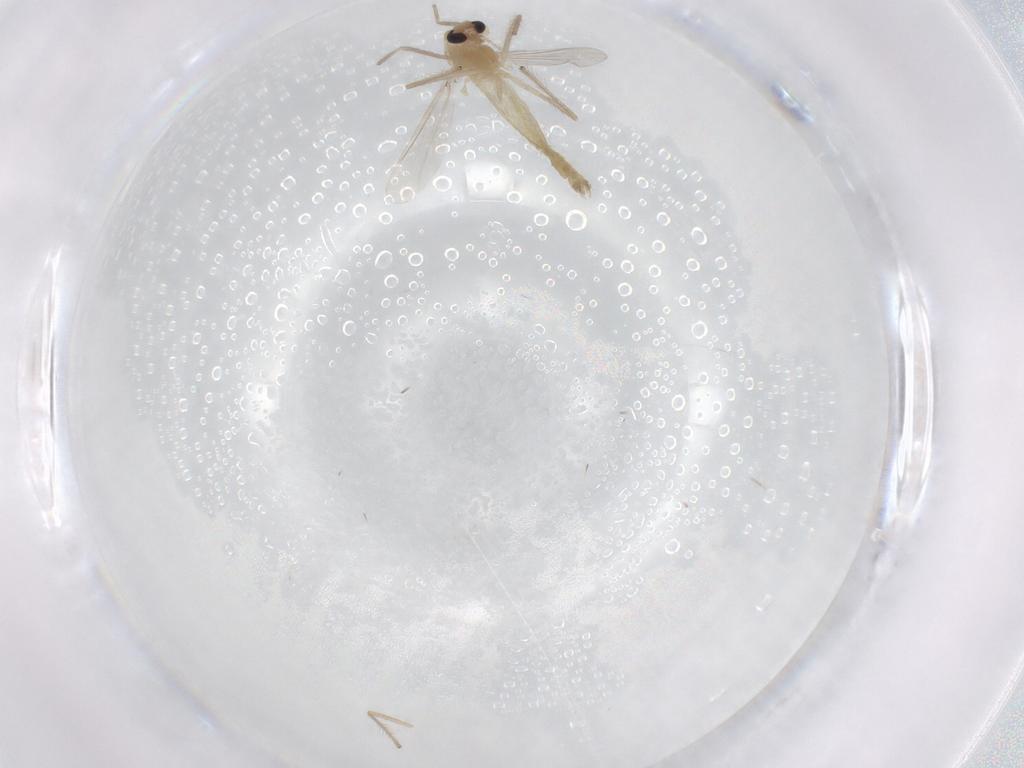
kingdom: Animalia
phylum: Arthropoda
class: Insecta
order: Diptera
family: Chironomidae
